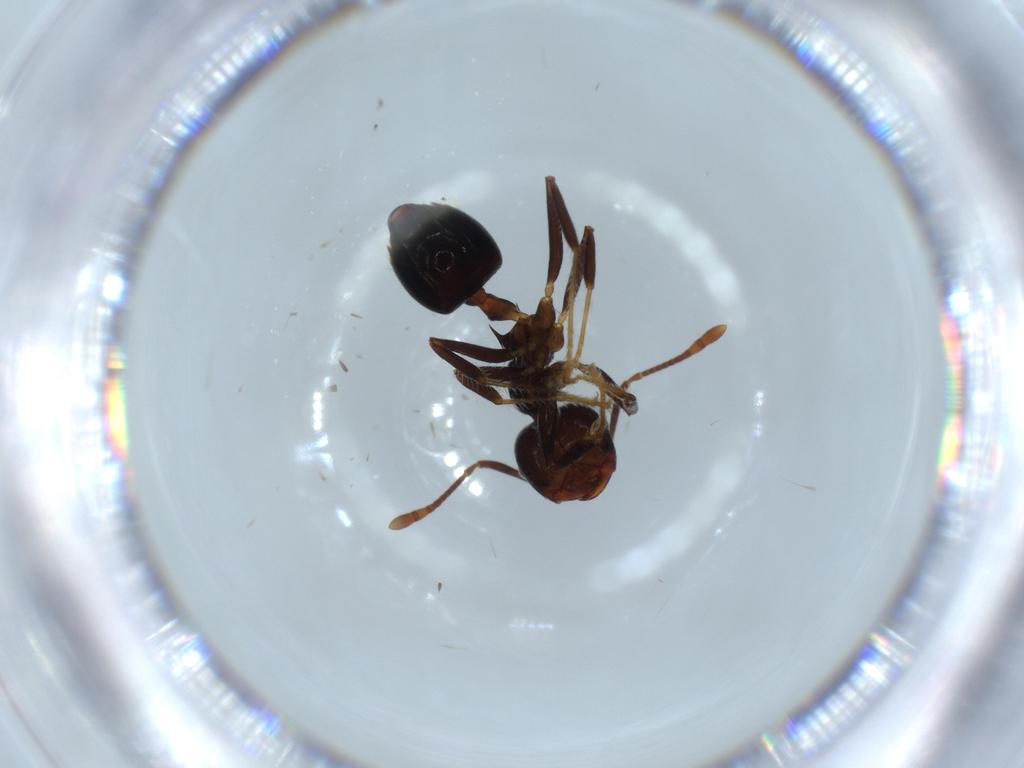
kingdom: Animalia
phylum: Arthropoda
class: Insecta
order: Hymenoptera
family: Formicidae
